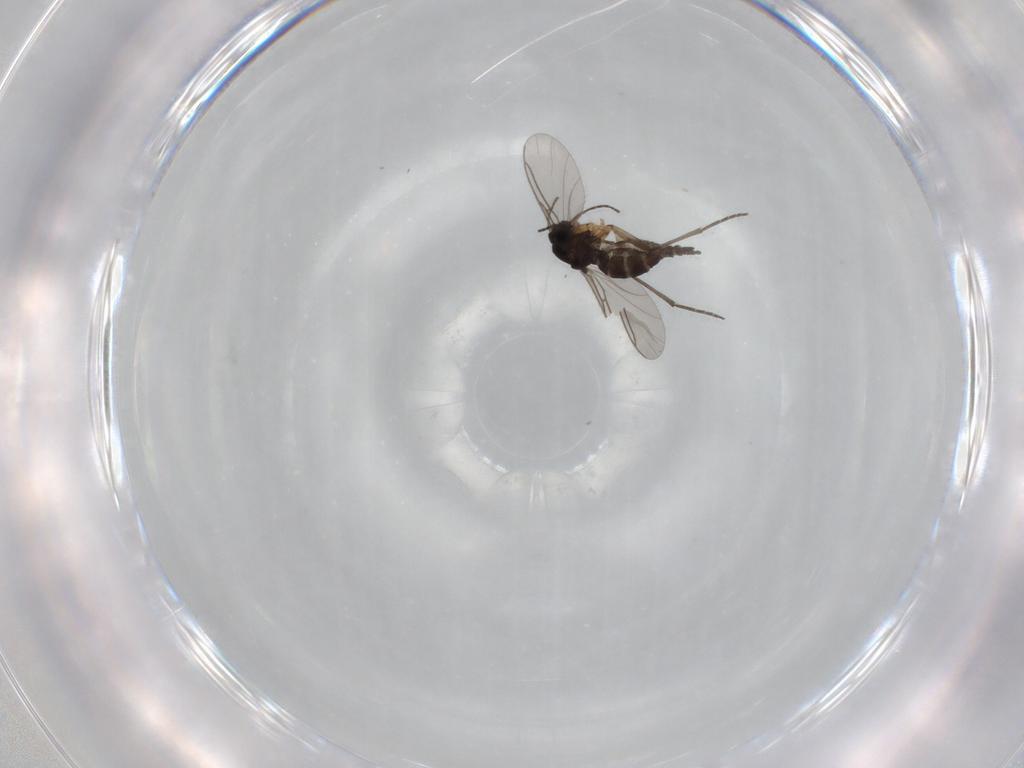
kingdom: Animalia
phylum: Arthropoda
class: Insecta
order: Diptera
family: Sciaridae
